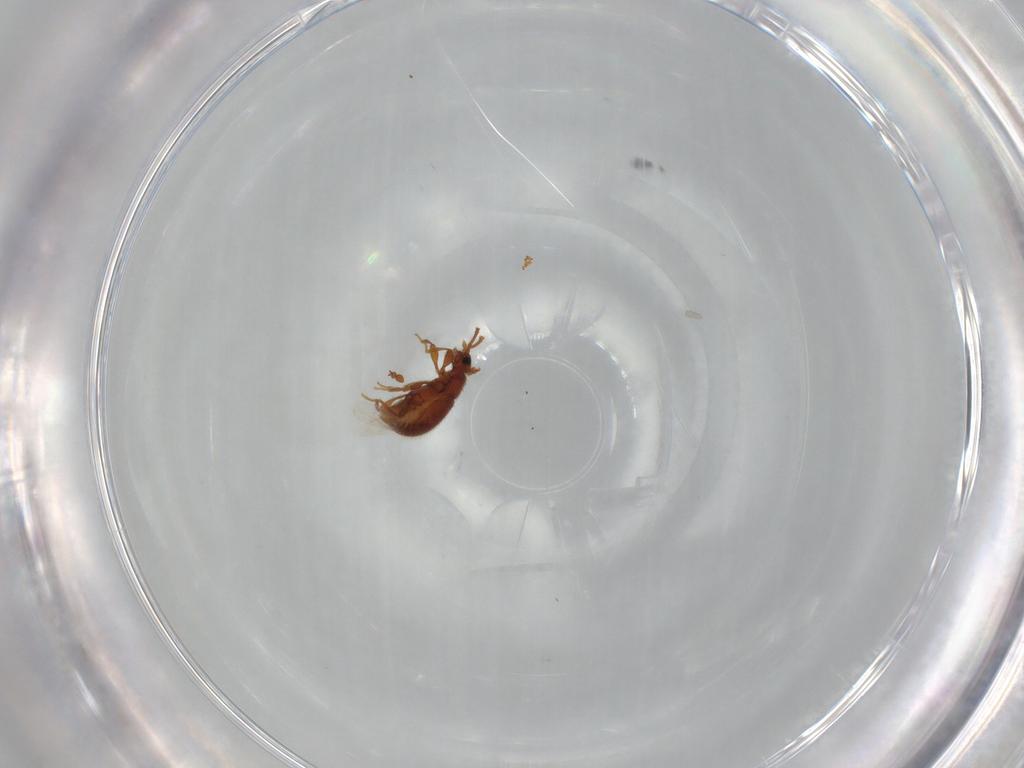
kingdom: Animalia
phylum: Arthropoda
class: Insecta
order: Coleoptera
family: Staphylinidae
